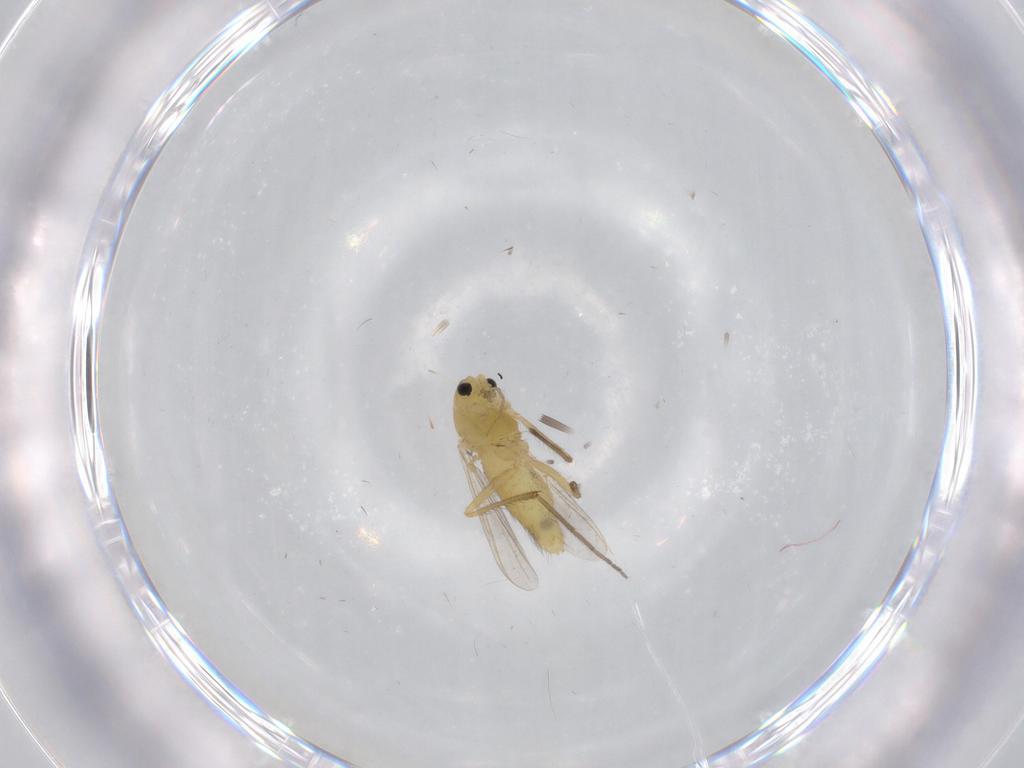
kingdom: Animalia
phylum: Arthropoda
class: Insecta
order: Diptera
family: Chironomidae
